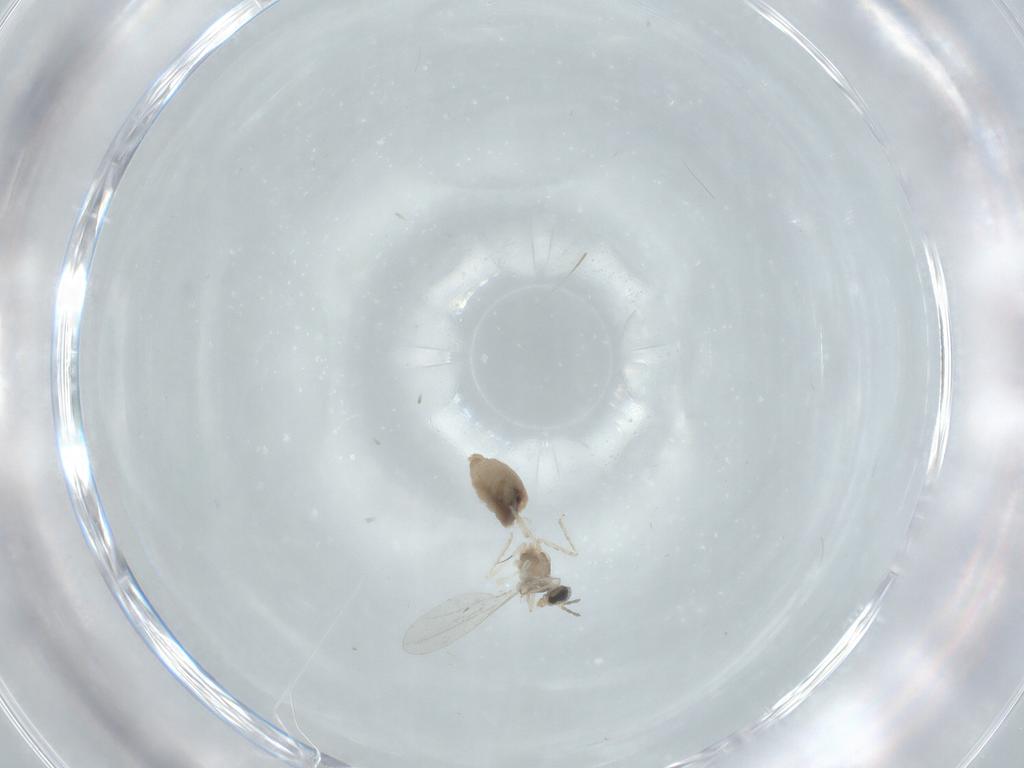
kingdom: Animalia
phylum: Arthropoda
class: Insecta
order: Diptera
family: Cecidomyiidae
